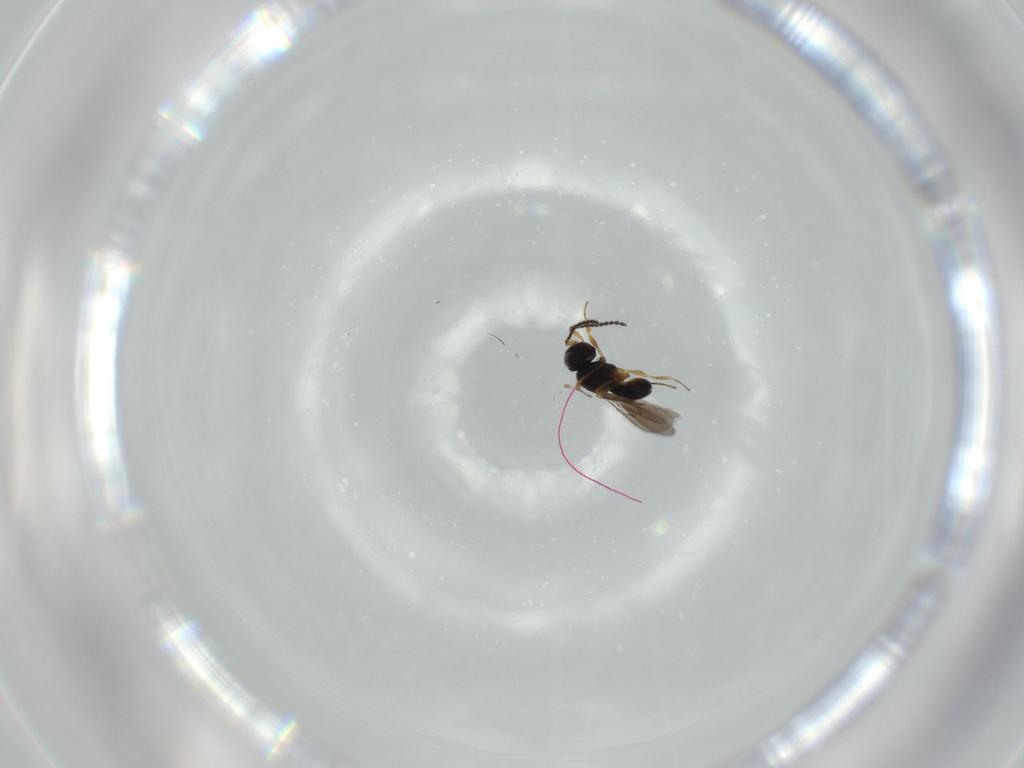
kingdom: Animalia
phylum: Arthropoda
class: Insecta
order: Hymenoptera
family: Scelionidae
